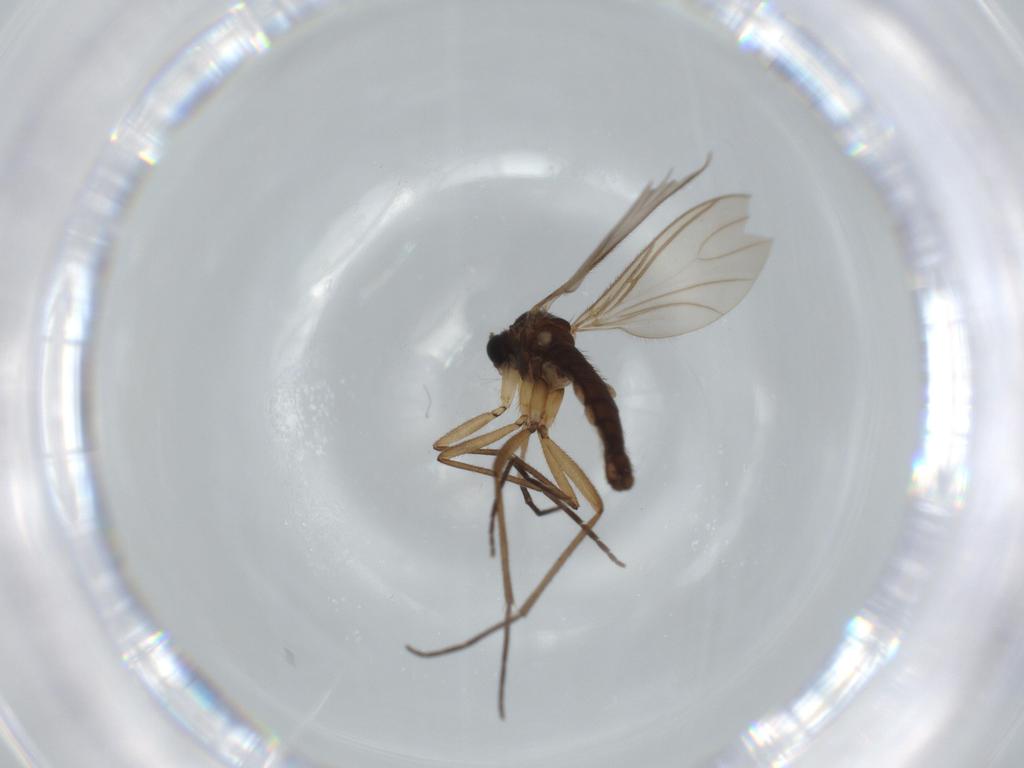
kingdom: Animalia
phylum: Arthropoda
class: Insecta
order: Diptera
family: Sciaridae
